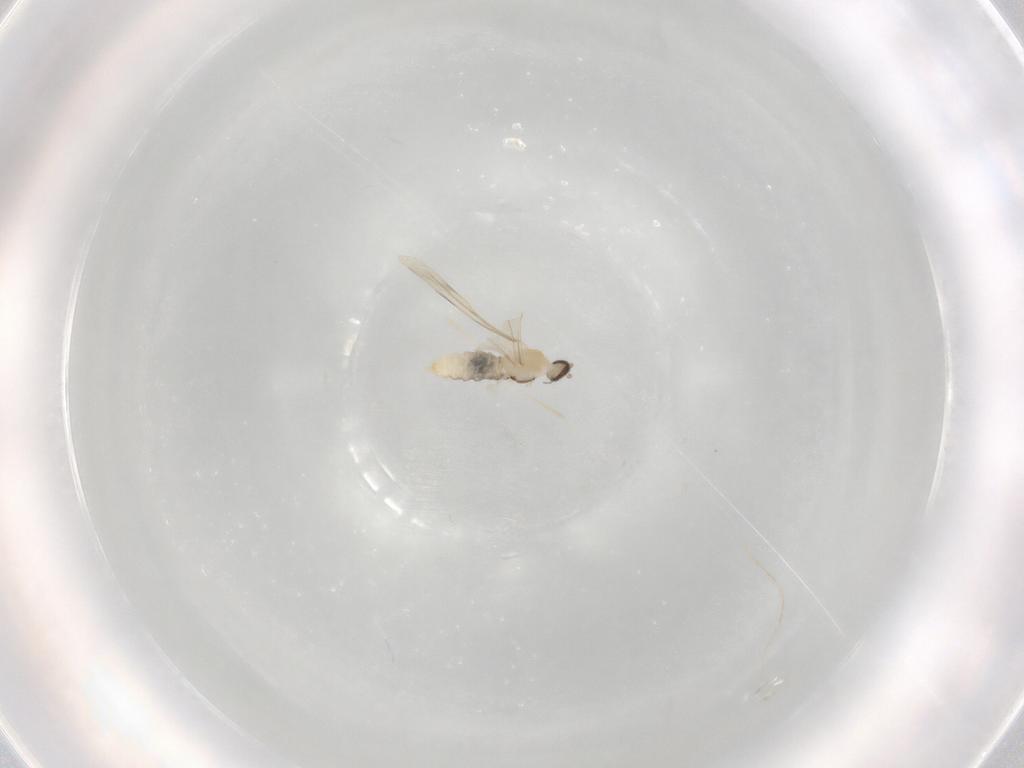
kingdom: Animalia
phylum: Arthropoda
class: Insecta
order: Diptera
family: Cecidomyiidae
